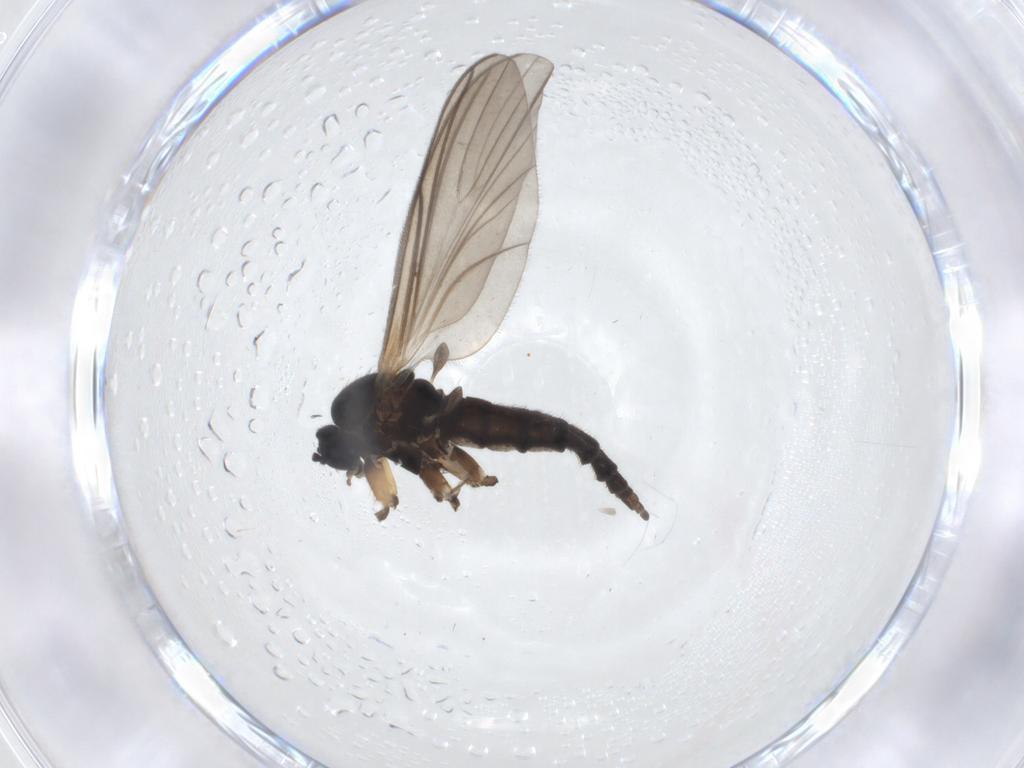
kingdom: Animalia
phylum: Arthropoda
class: Insecta
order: Diptera
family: Sciaridae
